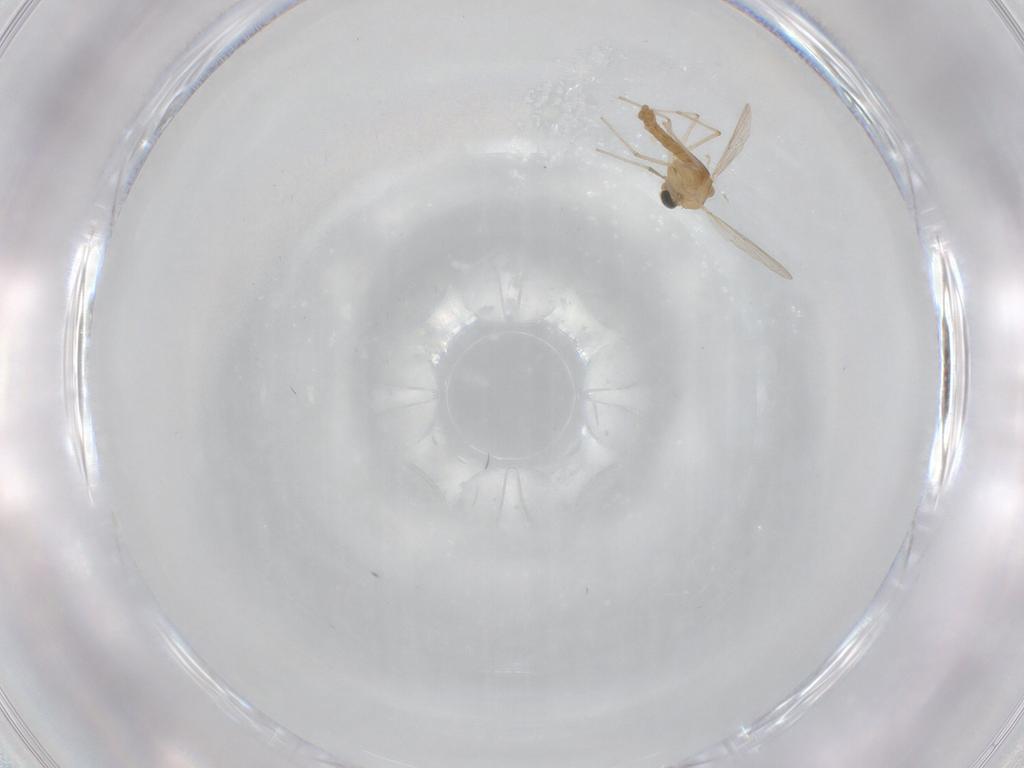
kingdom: Animalia
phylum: Arthropoda
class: Insecta
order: Diptera
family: Chironomidae
